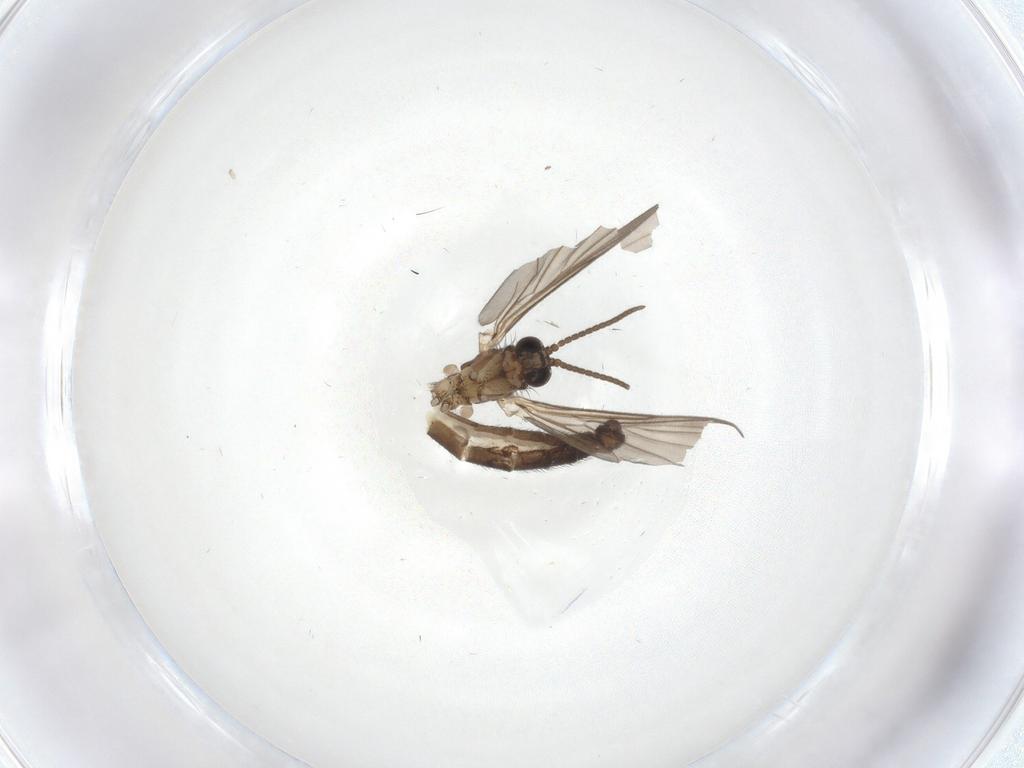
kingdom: Animalia
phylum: Arthropoda
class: Insecta
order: Diptera
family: Keroplatidae
